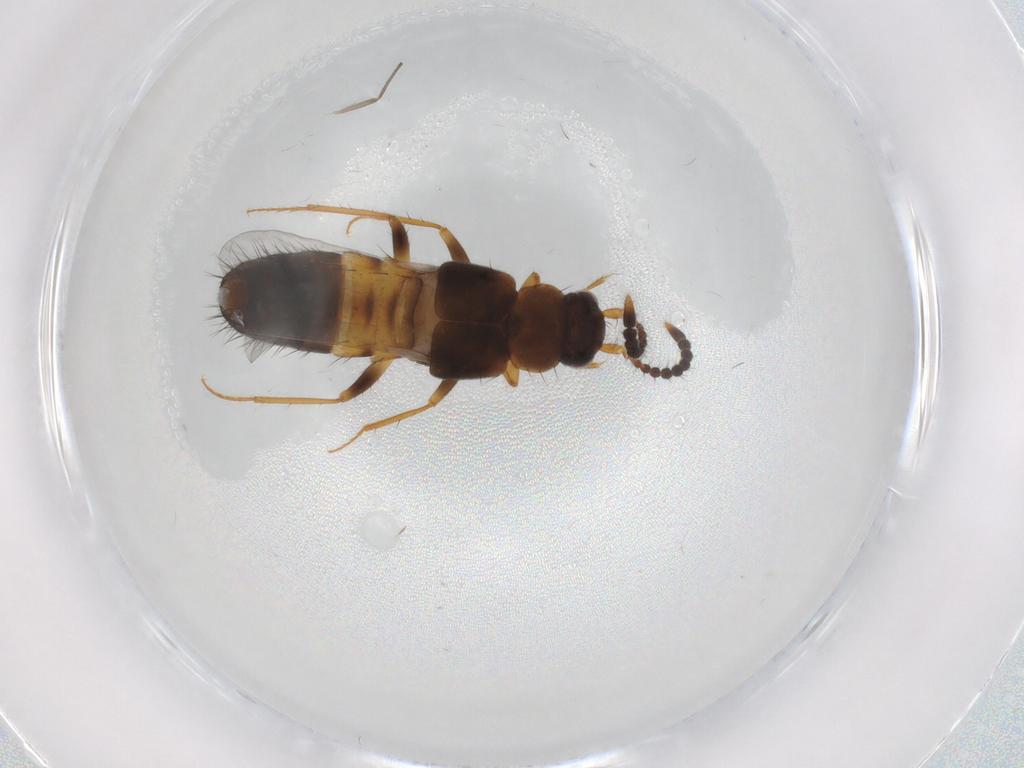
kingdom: Animalia
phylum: Arthropoda
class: Insecta
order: Coleoptera
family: Staphylinidae
